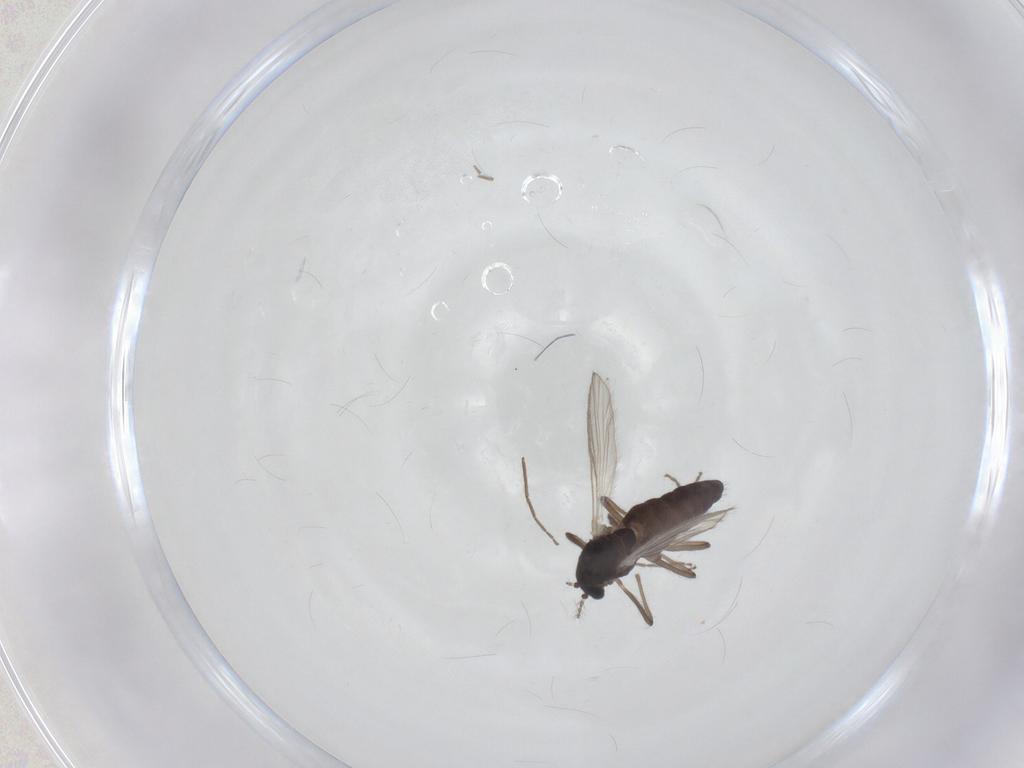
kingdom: Animalia
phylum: Arthropoda
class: Insecta
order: Diptera
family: Chironomidae
